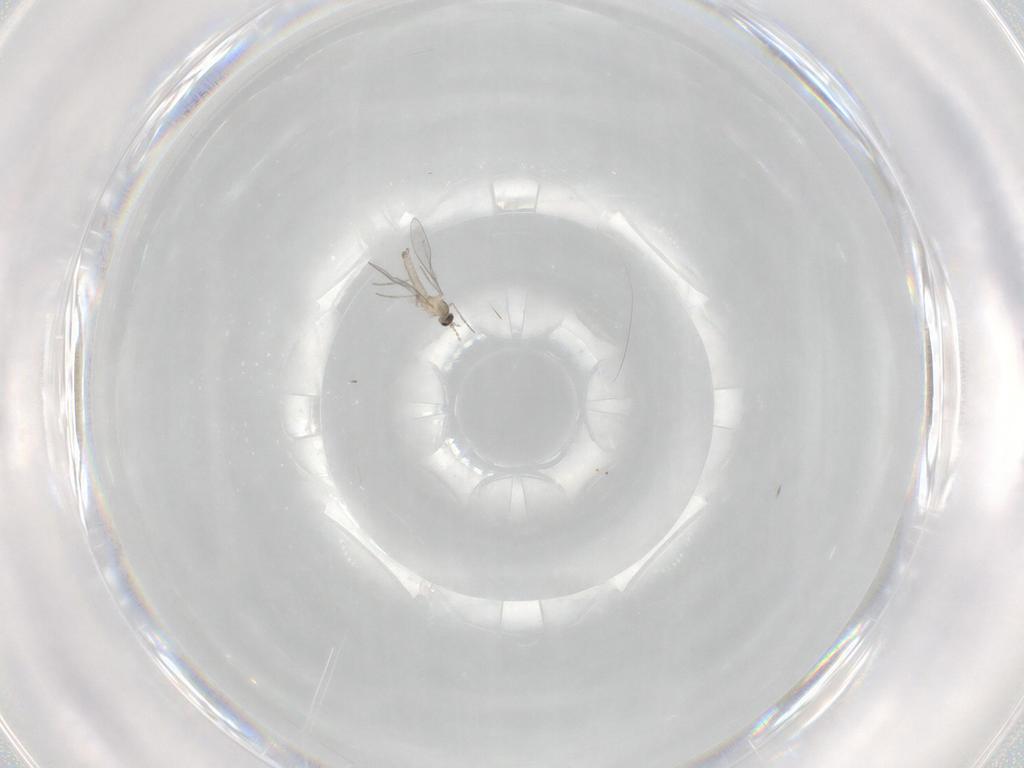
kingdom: Animalia
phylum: Arthropoda
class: Insecta
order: Diptera
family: Cecidomyiidae
